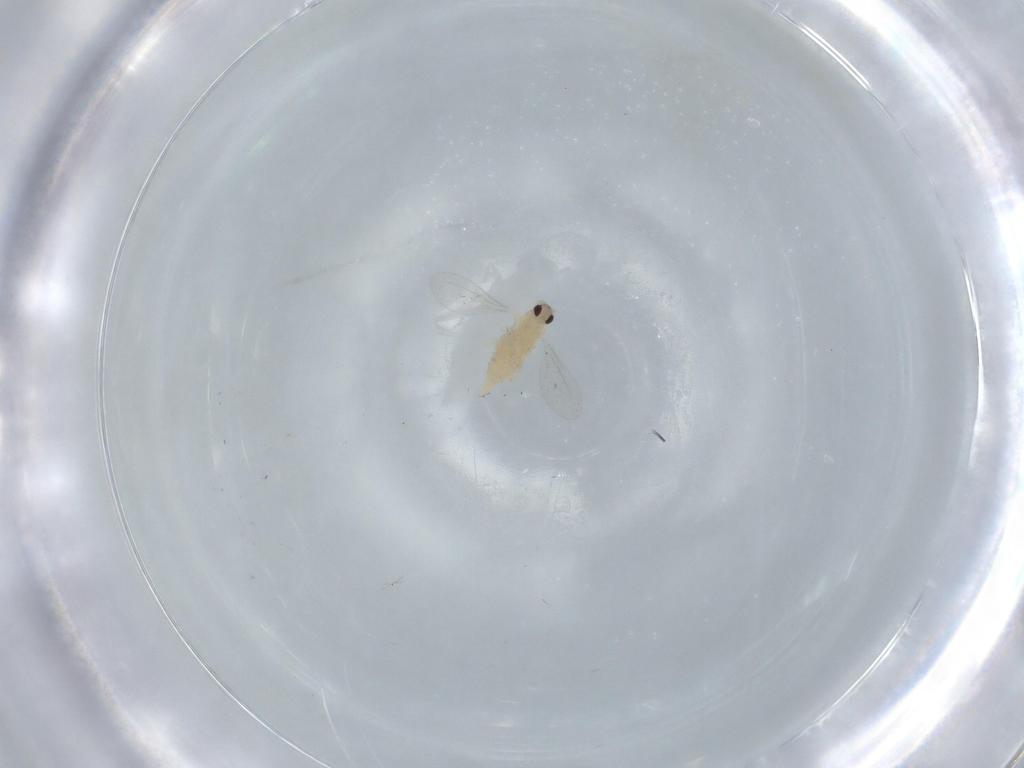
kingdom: Animalia
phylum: Arthropoda
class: Insecta
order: Diptera
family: Cecidomyiidae
